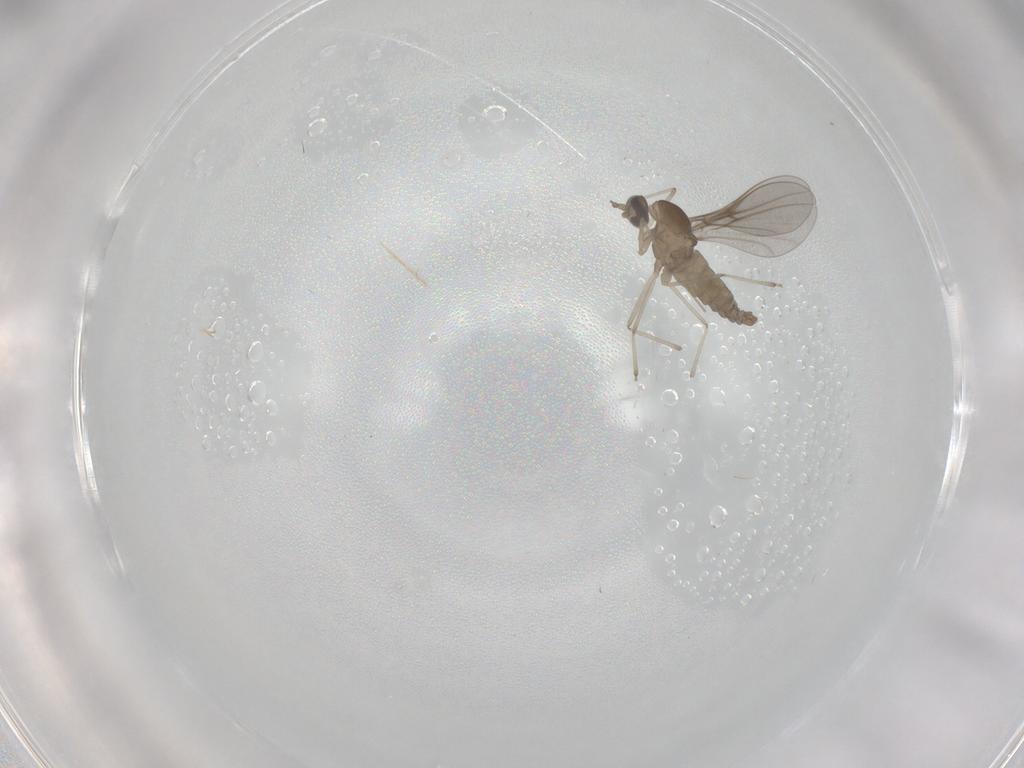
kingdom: Animalia
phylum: Arthropoda
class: Insecta
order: Diptera
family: Cecidomyiidae
